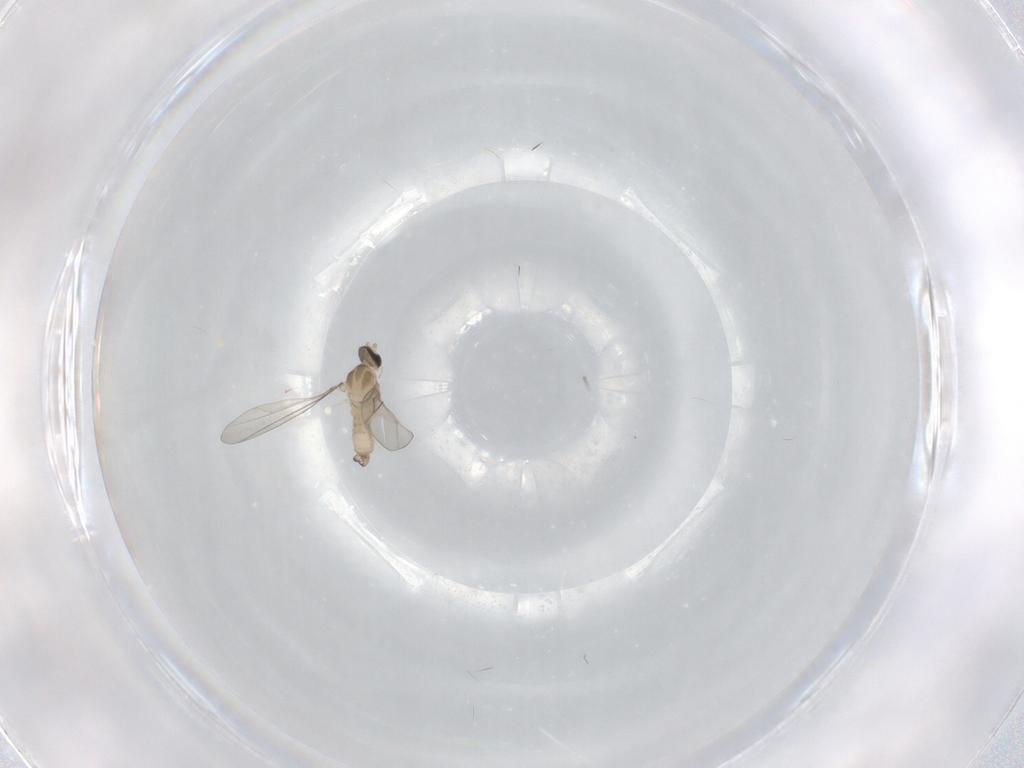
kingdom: Animalia
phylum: Arthropoda
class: Insecta
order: Diptera
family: Cecidomyiidae
